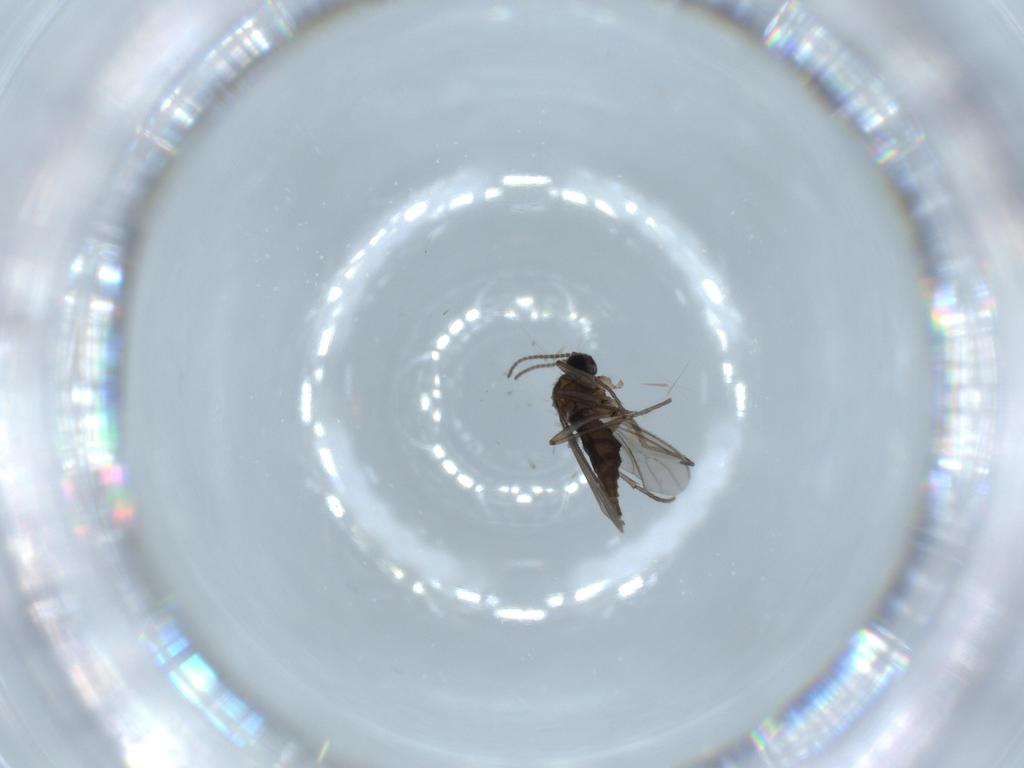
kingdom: Animalia
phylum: Arthropoda
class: Insecta
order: Diptera
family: Sciaridae
